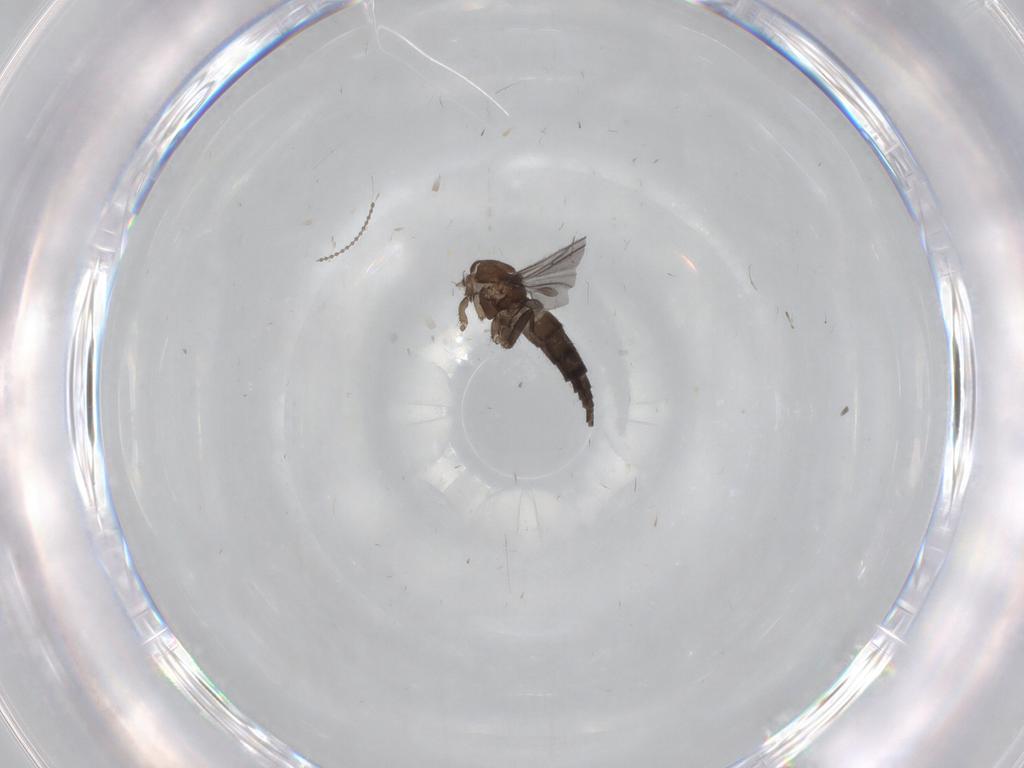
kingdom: Animalia
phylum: Arthropoda
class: Insecta
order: Diptera
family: Sciaridae
